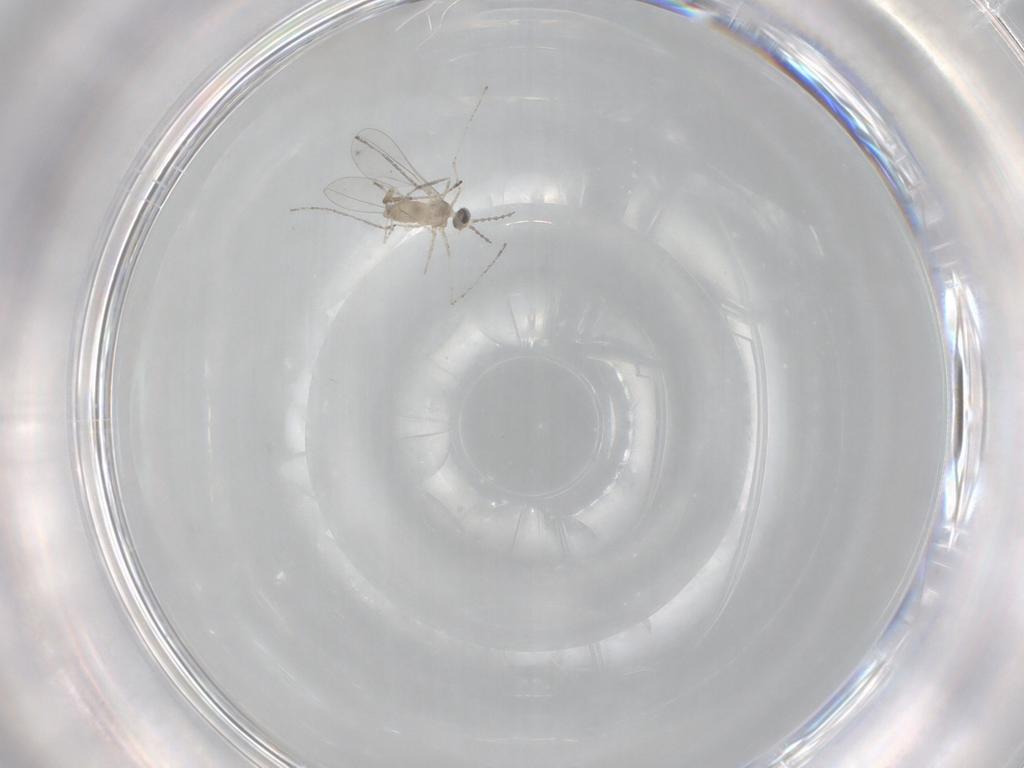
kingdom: Animalia
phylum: Arthropoda
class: Insecta
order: Diptera
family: Cecidomyiidae
